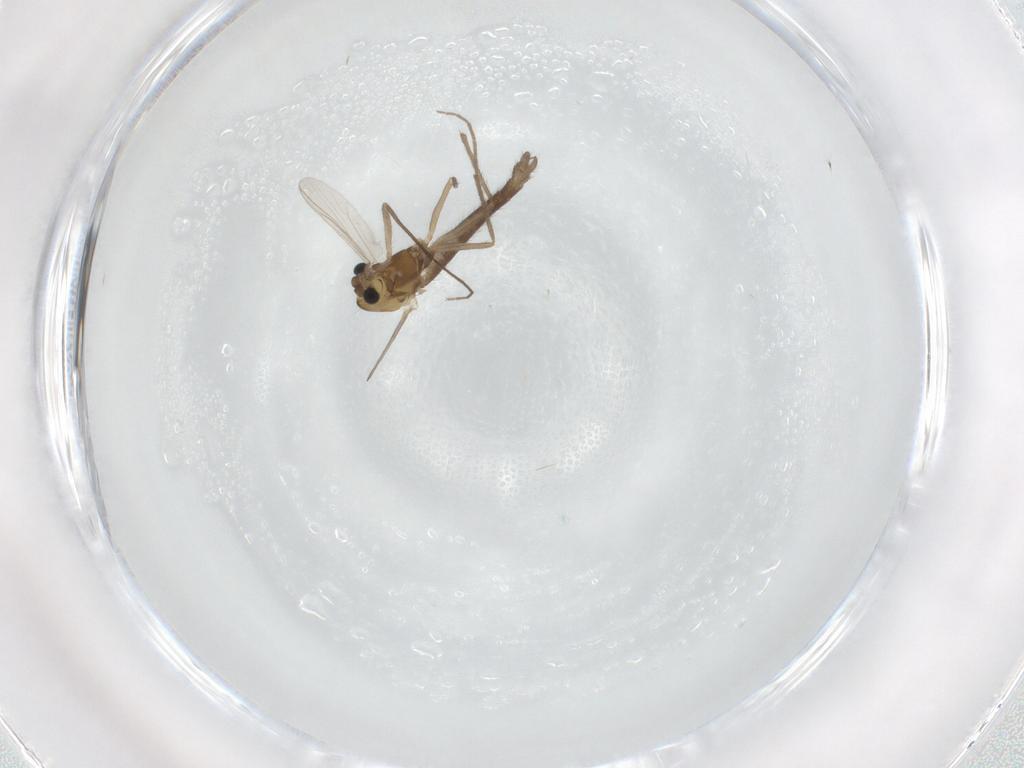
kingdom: Animalia
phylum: Arthropoda
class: Insecta
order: Diptera
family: Chironomidae
